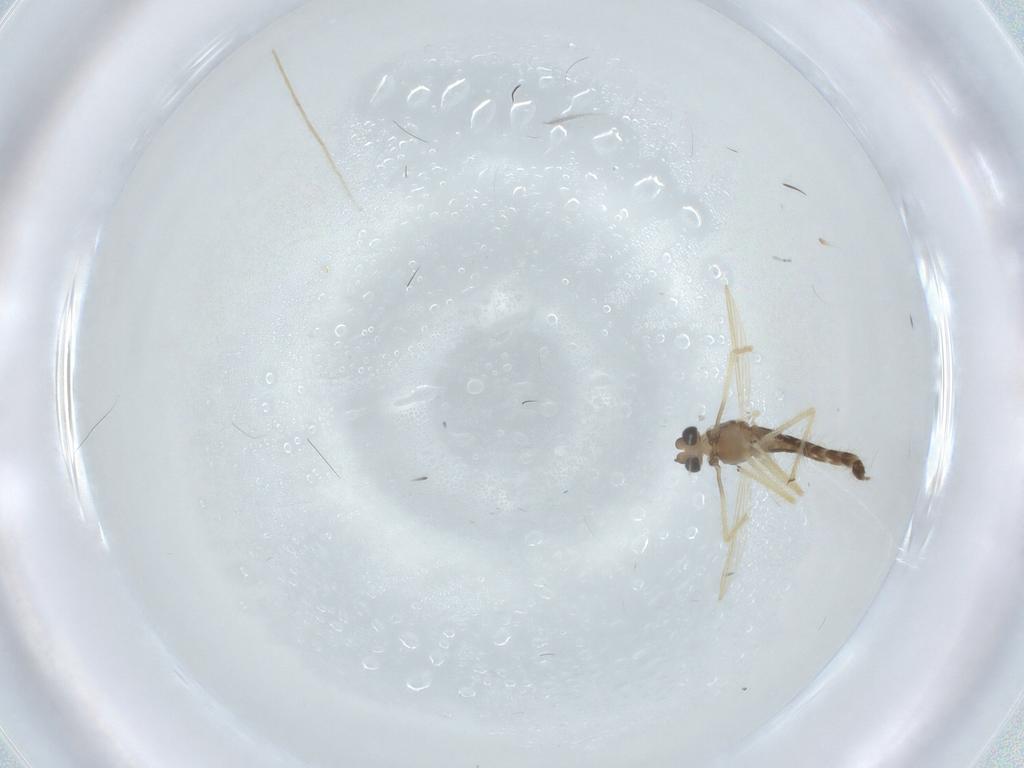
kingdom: Animalia
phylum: Arthropoda
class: Insecta
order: Diptera
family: Chironomidae
